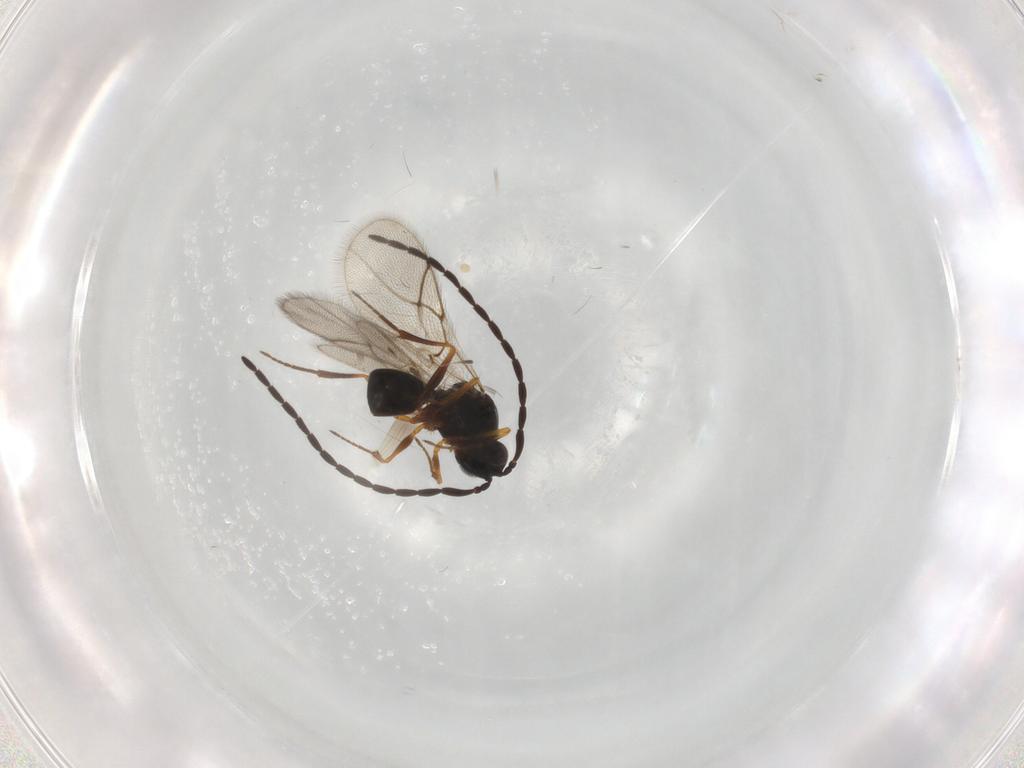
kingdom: Animalia
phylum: Arthropoda
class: Insecta
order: Hymenoptera
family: Figitidae
